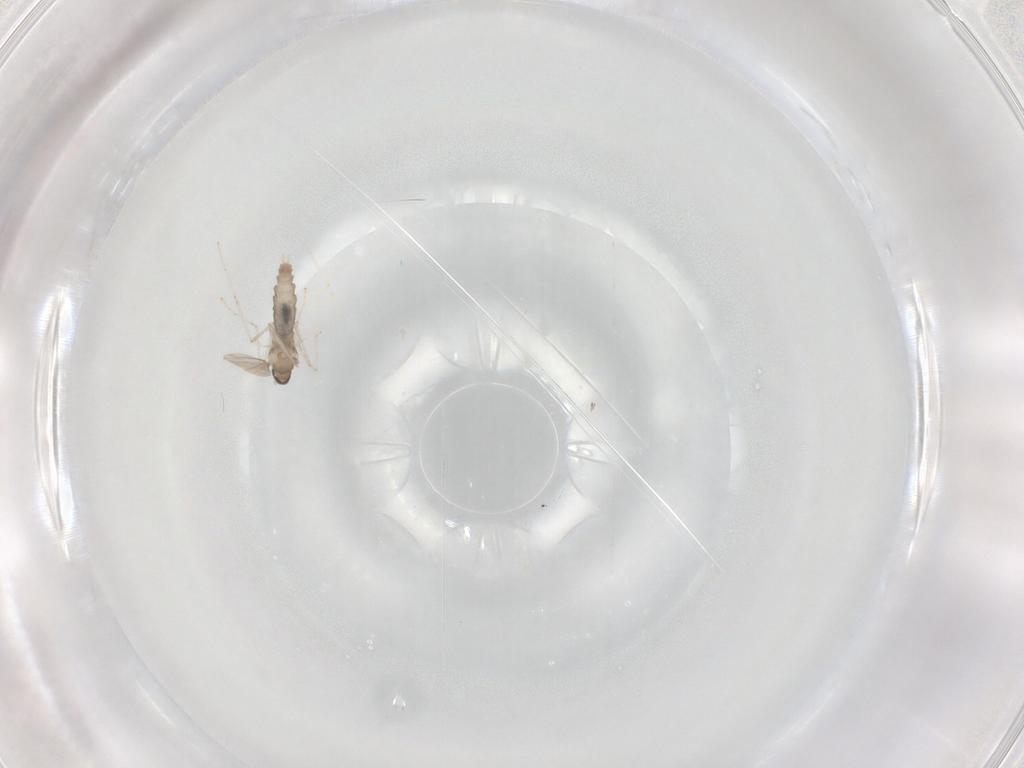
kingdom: Animalia
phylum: Arthropoda
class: Insecta
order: Diptera
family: Cecidomyiidae
